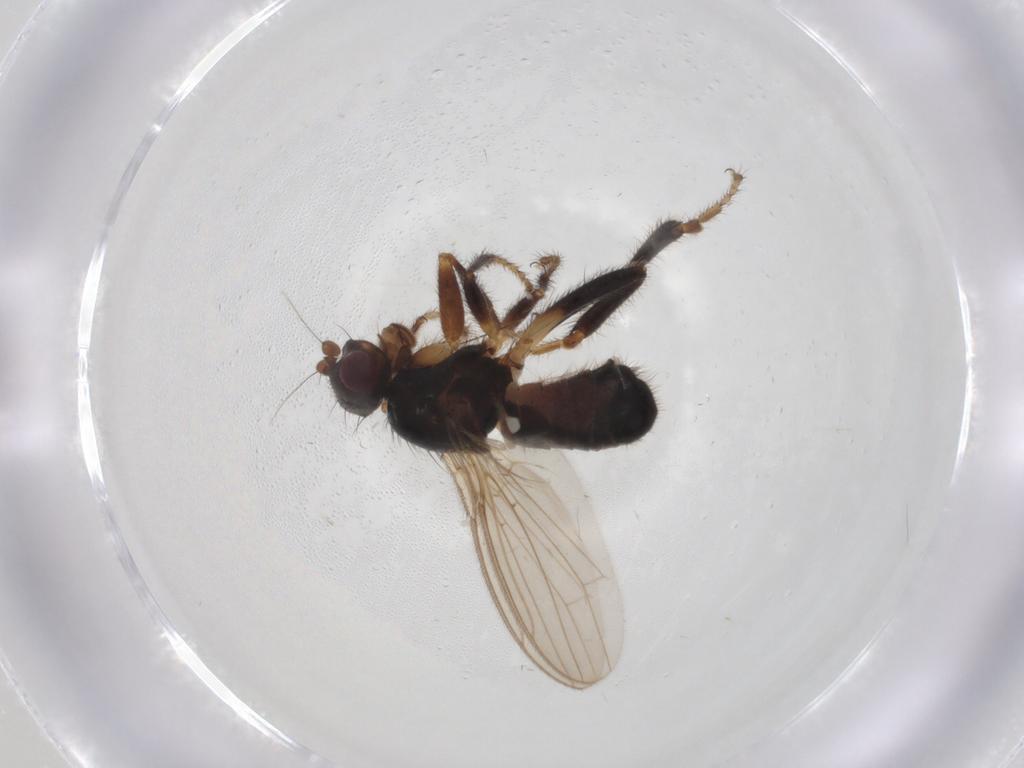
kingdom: Animalia
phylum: Arthropoda
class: Insecta
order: Diptera
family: Sphaeroceridae
